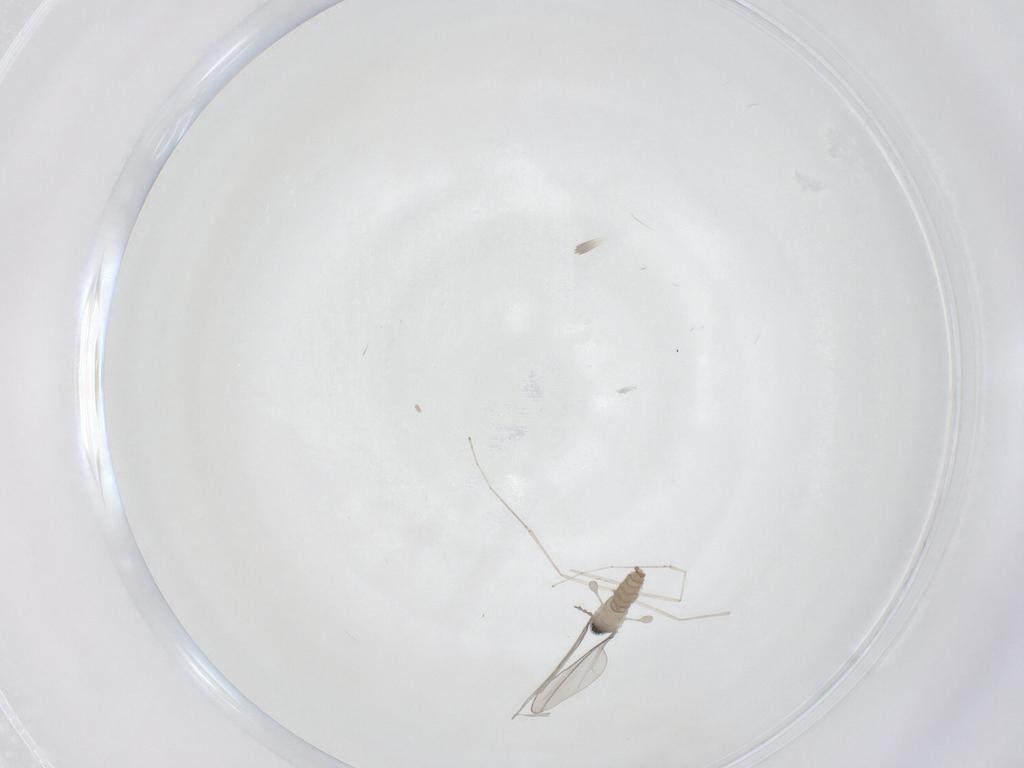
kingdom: Animalia
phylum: Arthropoda
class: Insecta
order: Diptera
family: Cecidomyiidae
